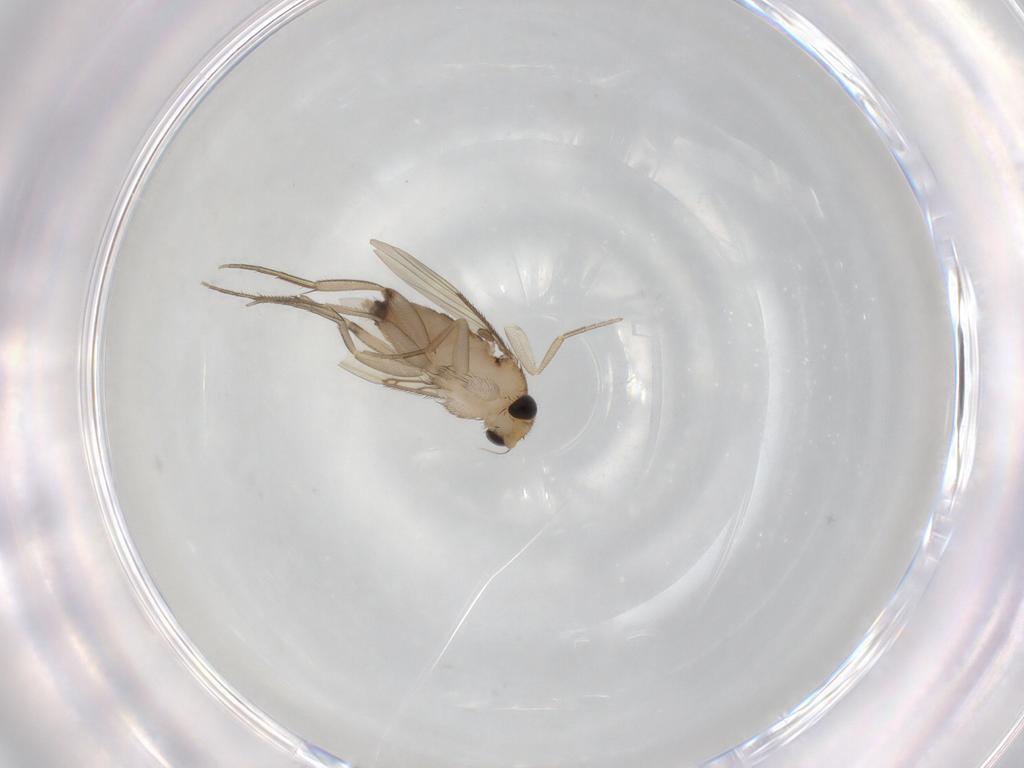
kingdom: Animalia
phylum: Arthropoda
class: Insecta
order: Diptera
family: Phoridae
